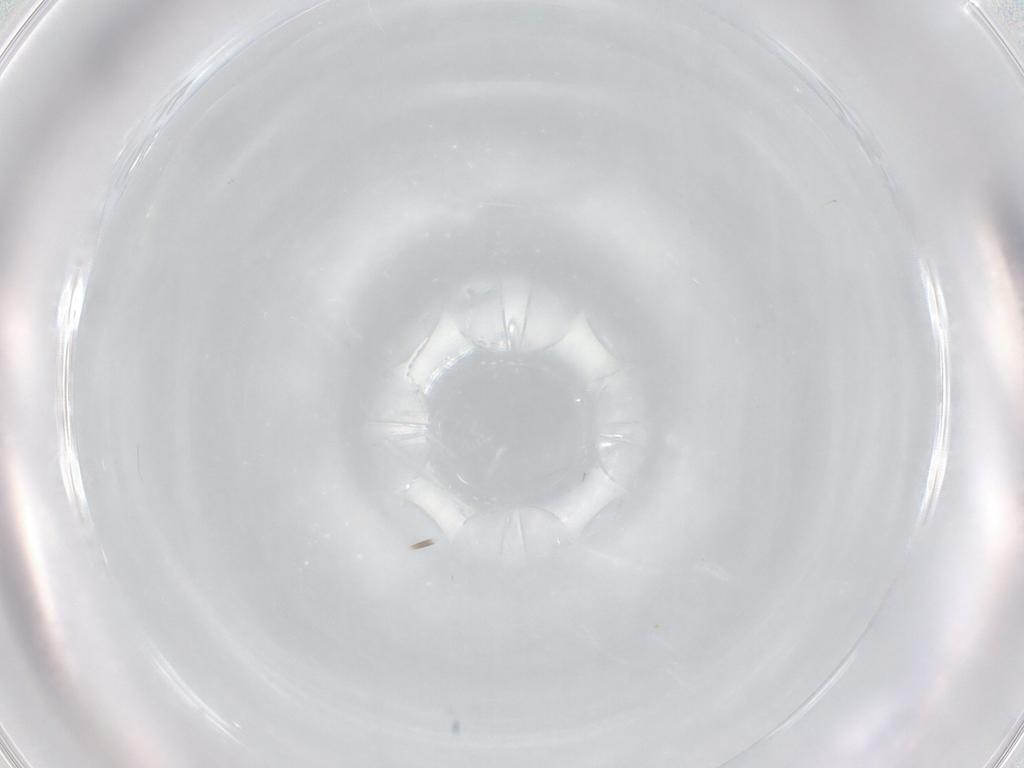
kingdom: Animalia
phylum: Arthropoda
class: Insecta
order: Diptera
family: Cecidomyiidae
